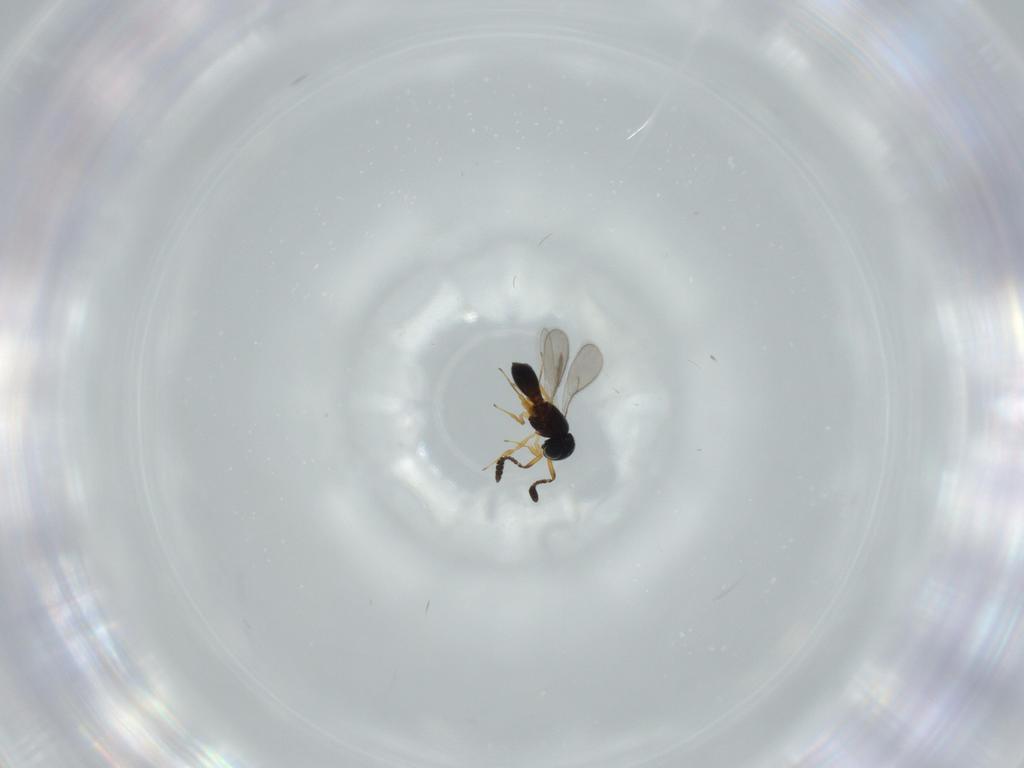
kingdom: Animalia
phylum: Arthropoda
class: Insecta
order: Hymenoptera
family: Scelionidae
